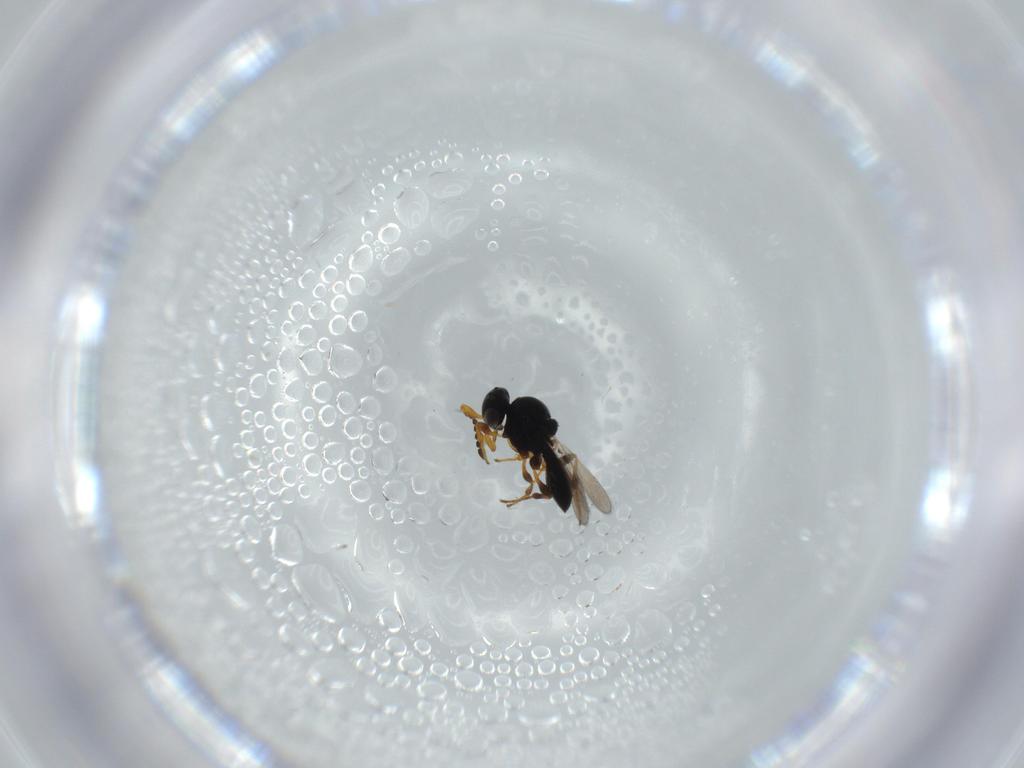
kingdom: Animalia
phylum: Arthropoda
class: Insecta
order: Hymenoptera
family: Platygastridae
